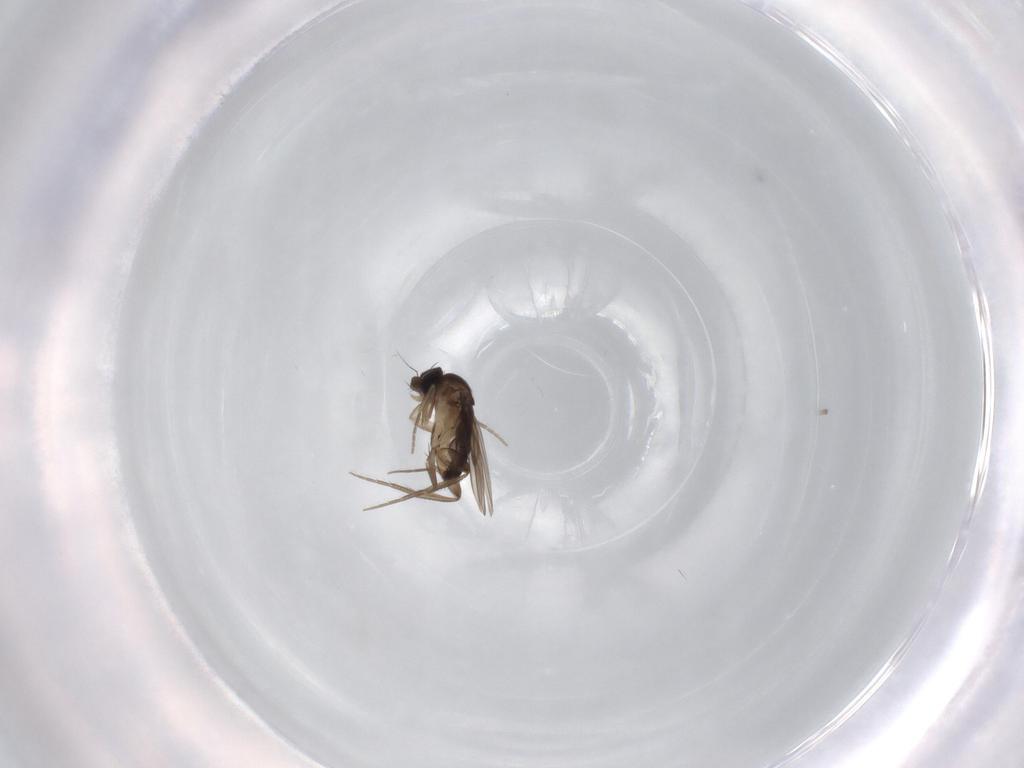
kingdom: Animalia
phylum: Arthropoda
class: Insecta
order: Diptera
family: Phoridae
